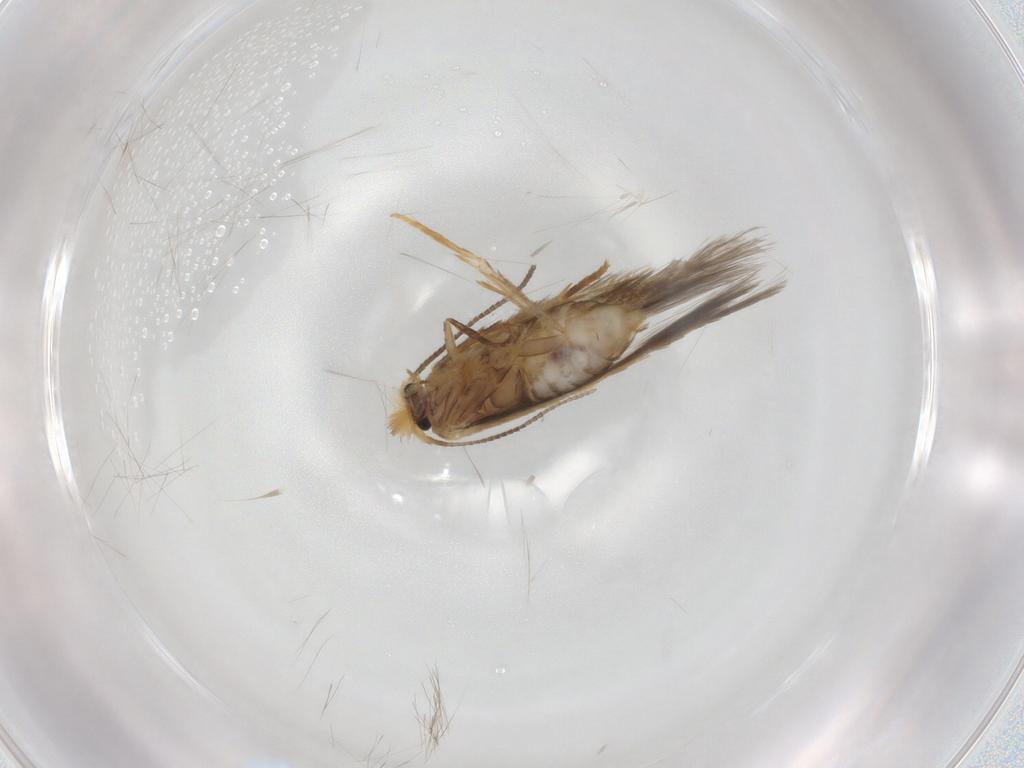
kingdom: Animalia
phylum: Arthropoda
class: Insecta
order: Lepidoptera
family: Nepticulidae
